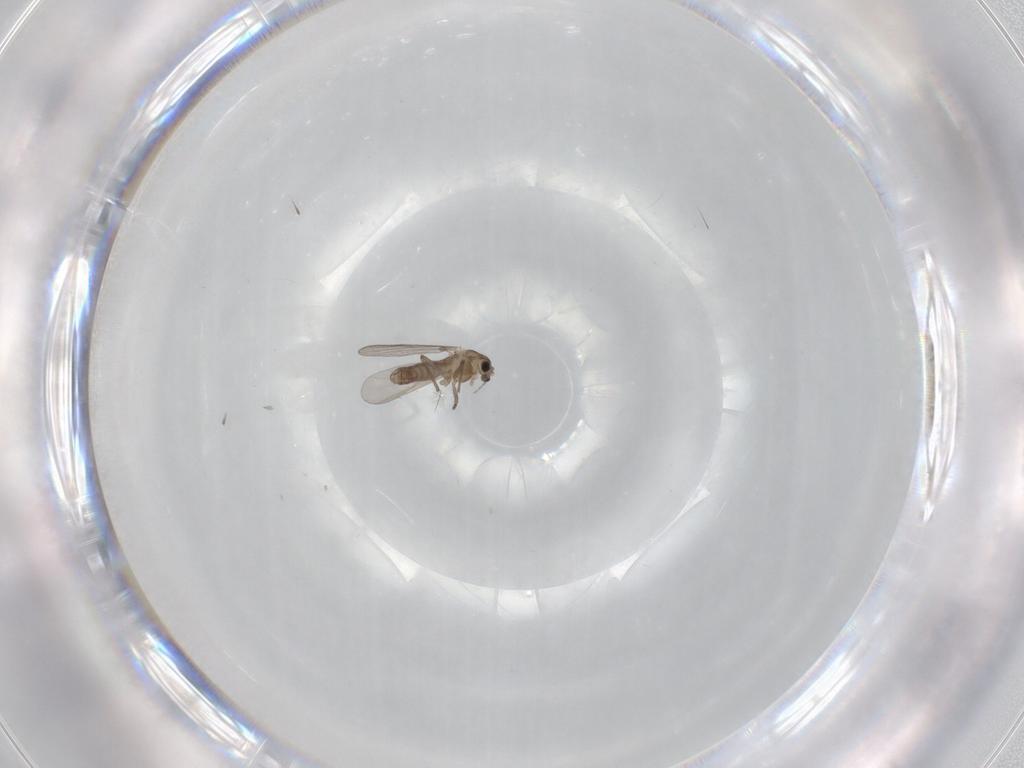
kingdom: Animalia
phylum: Arthropoda
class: Insecta
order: Diptera
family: Chironomidae
